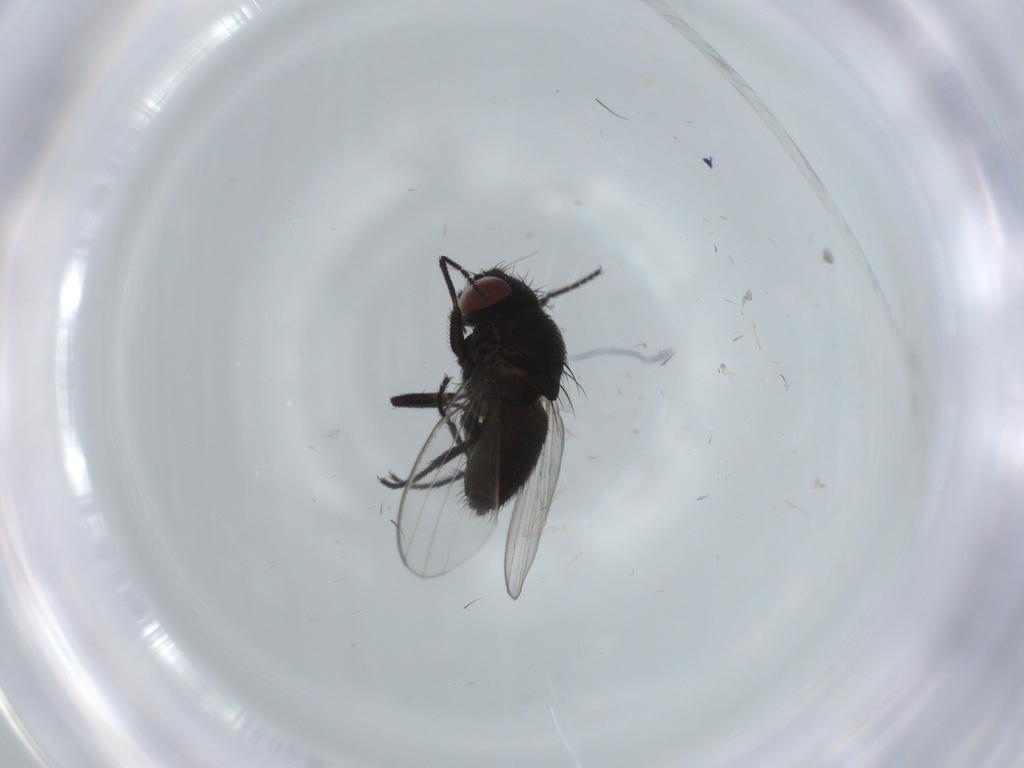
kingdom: Animalia
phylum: Arthropoda
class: Insecta
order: Diptera
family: Milichiidae
